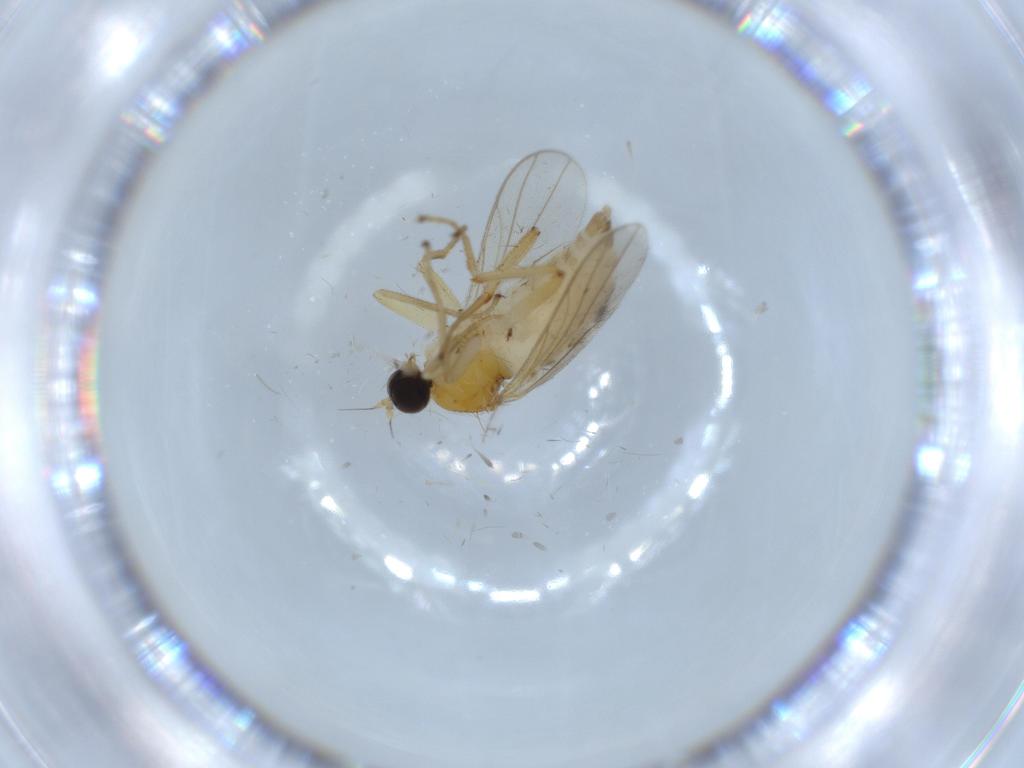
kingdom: Animalia
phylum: Arthropoda
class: Insecta
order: Diptera
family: Hybotidae
